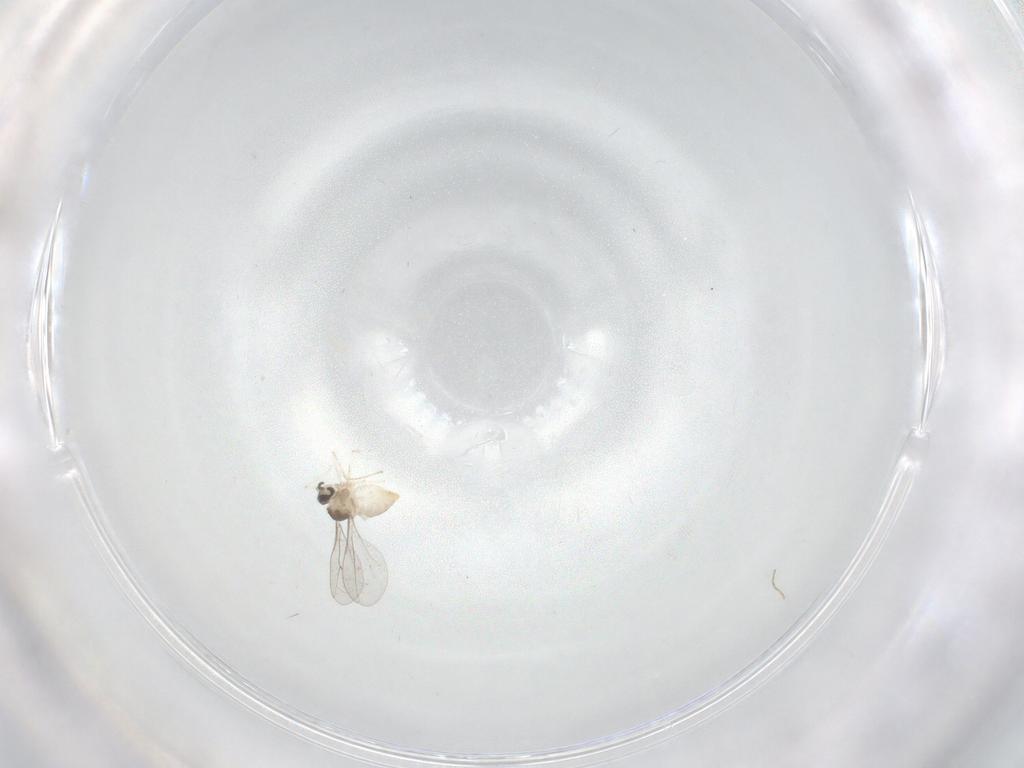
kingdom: Animalia
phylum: Arthropoda
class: Insecta
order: Diptera
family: Cecidomyiidae
